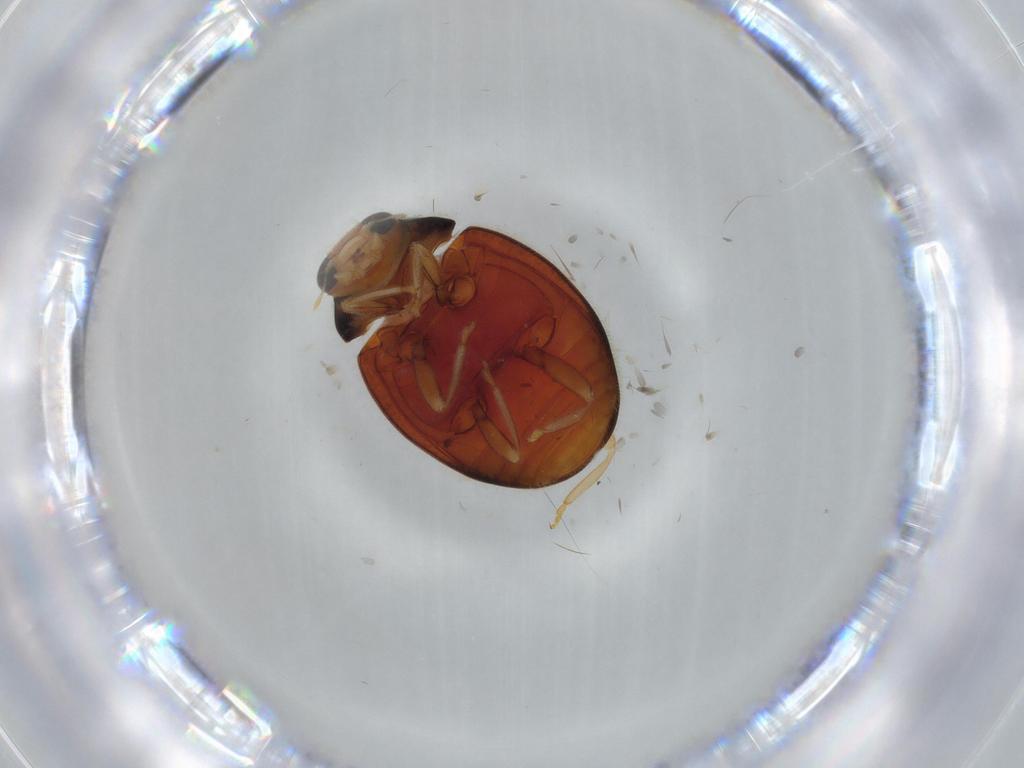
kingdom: Animalia
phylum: Arthropoda
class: Insecta
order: Coleoptera
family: Coccinellidae
